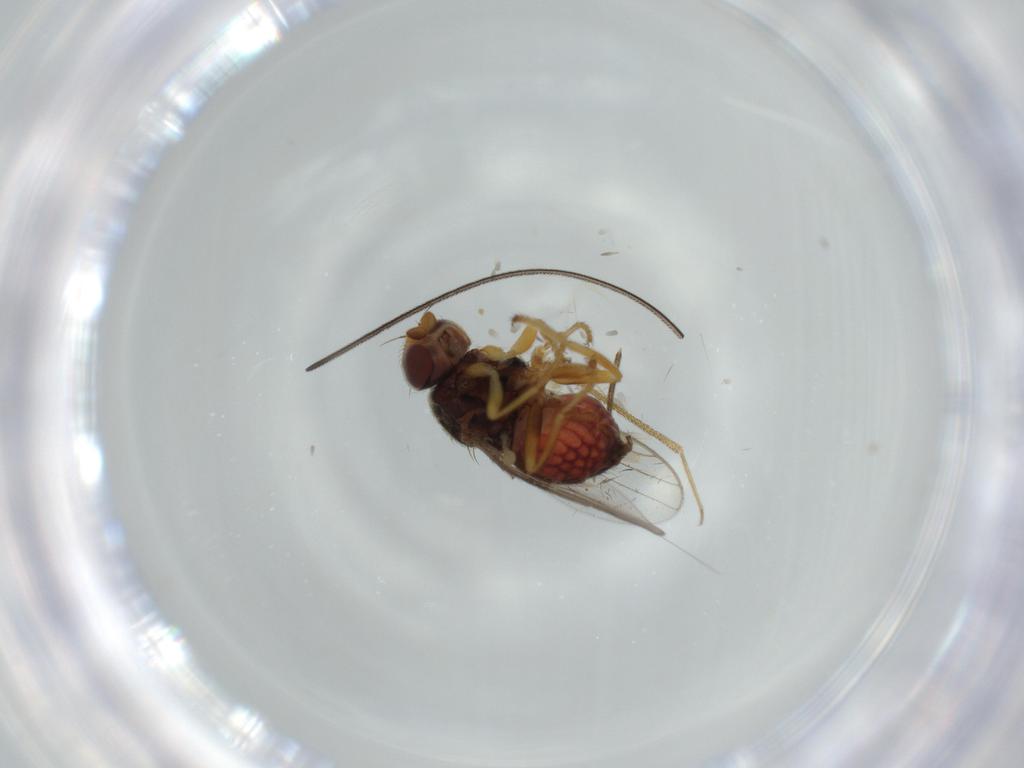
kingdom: Animalia
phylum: Arthropoda
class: Insecta
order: Diptera
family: Chloropidae
